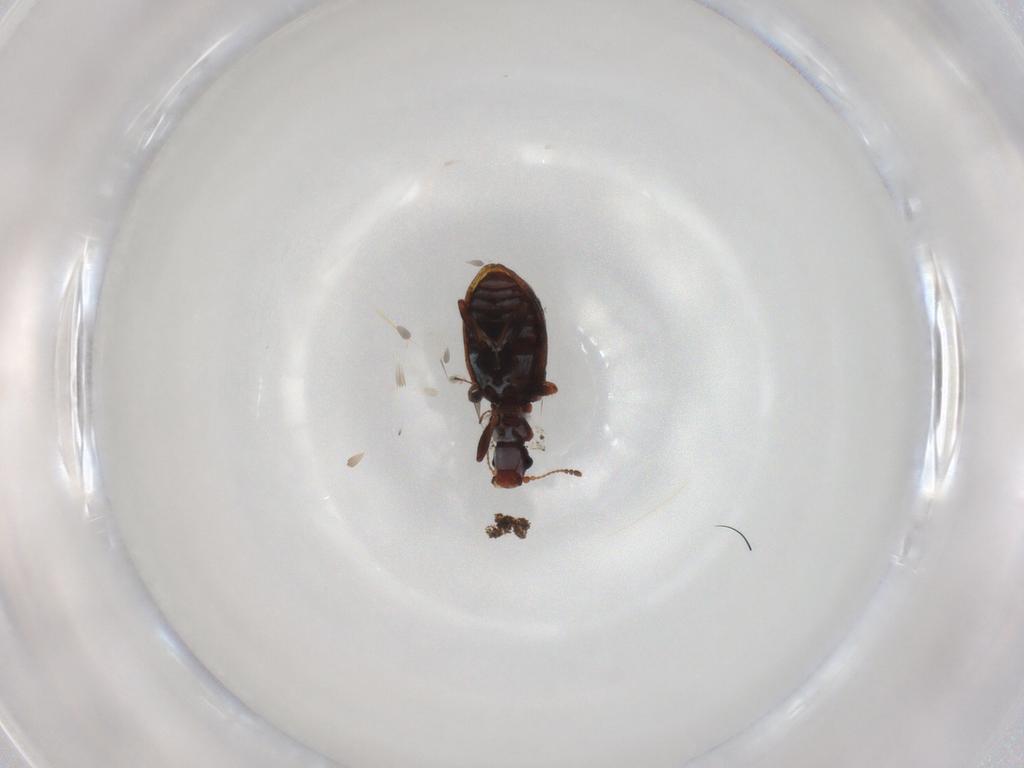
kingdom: Animalia
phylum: Arthropoda
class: Insecta
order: Coleoptera
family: Latridiidae
